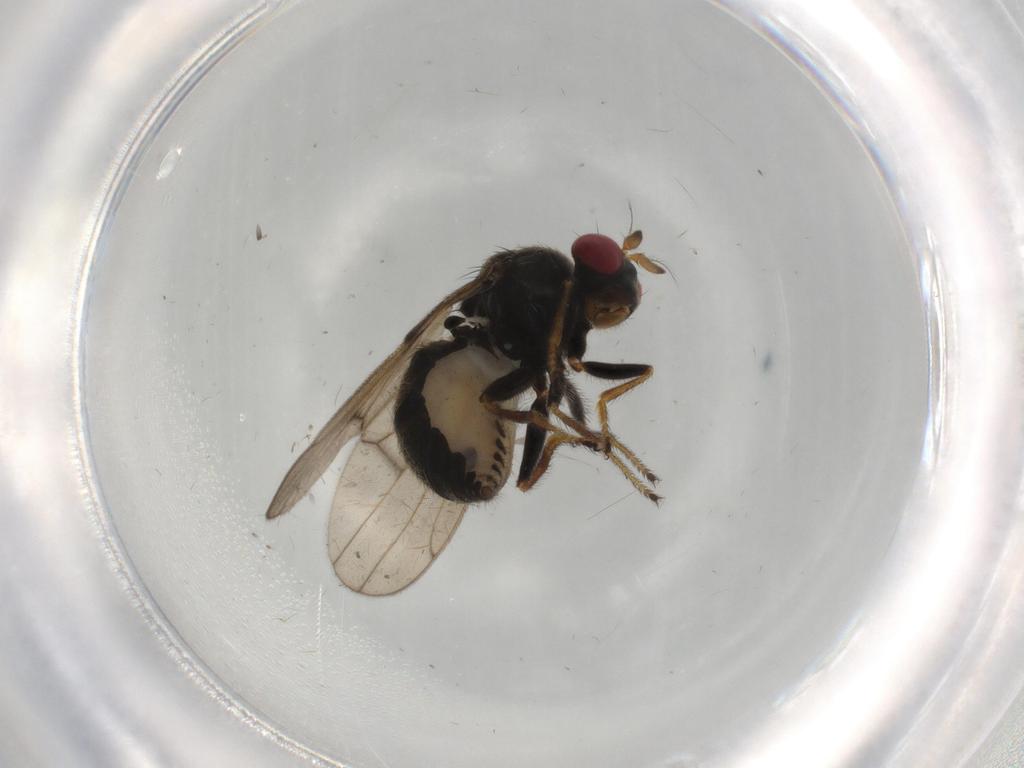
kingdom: Animalia
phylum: Arthropoda
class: Insecta
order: Diptera
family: Ephydridae
